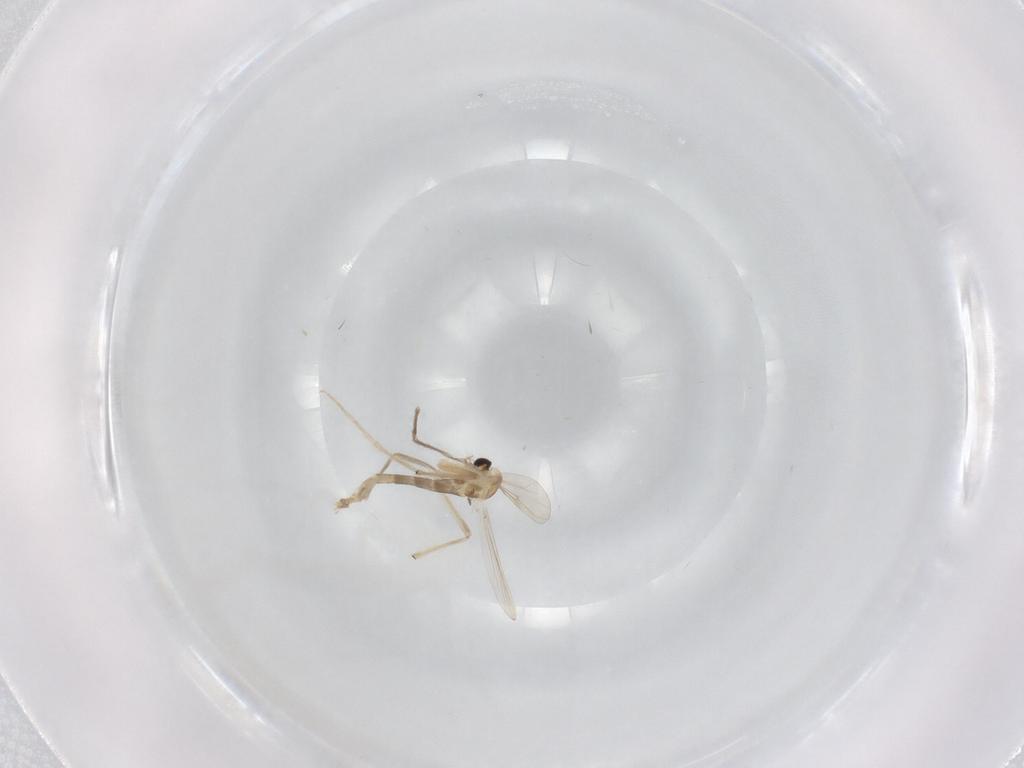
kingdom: Animalia
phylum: Arthropoda
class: Insecta
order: Diptera
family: Chironomidae
